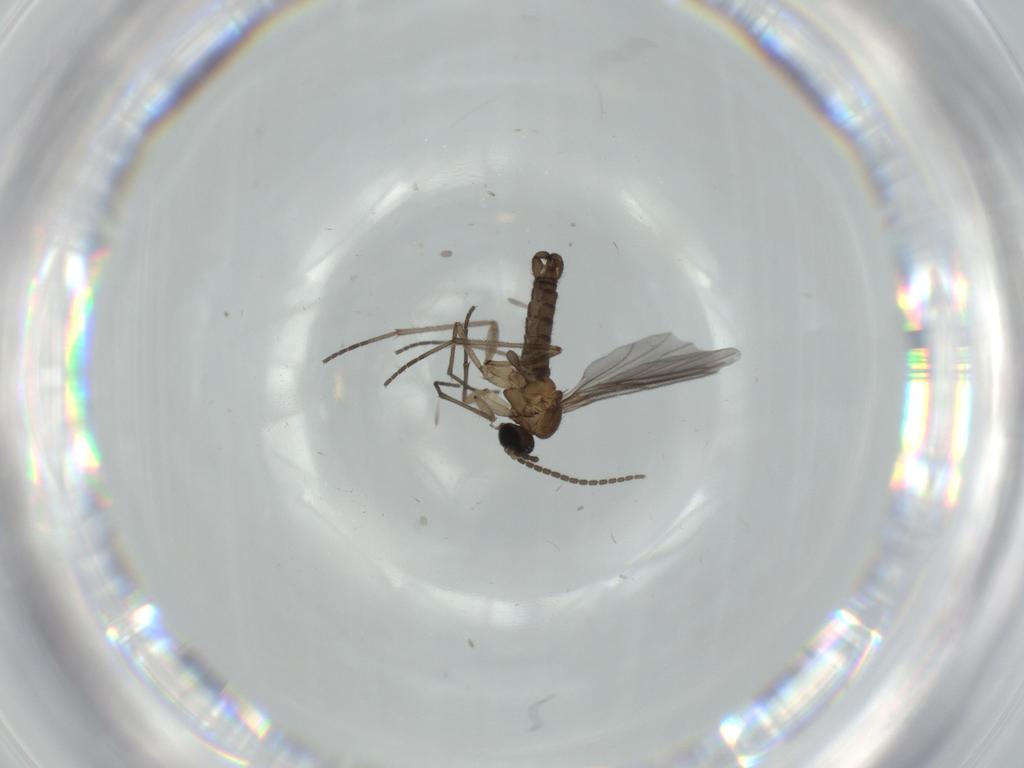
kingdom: Animalia
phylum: Arthropoda
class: Insecta
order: Diptera
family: Sciaridae
